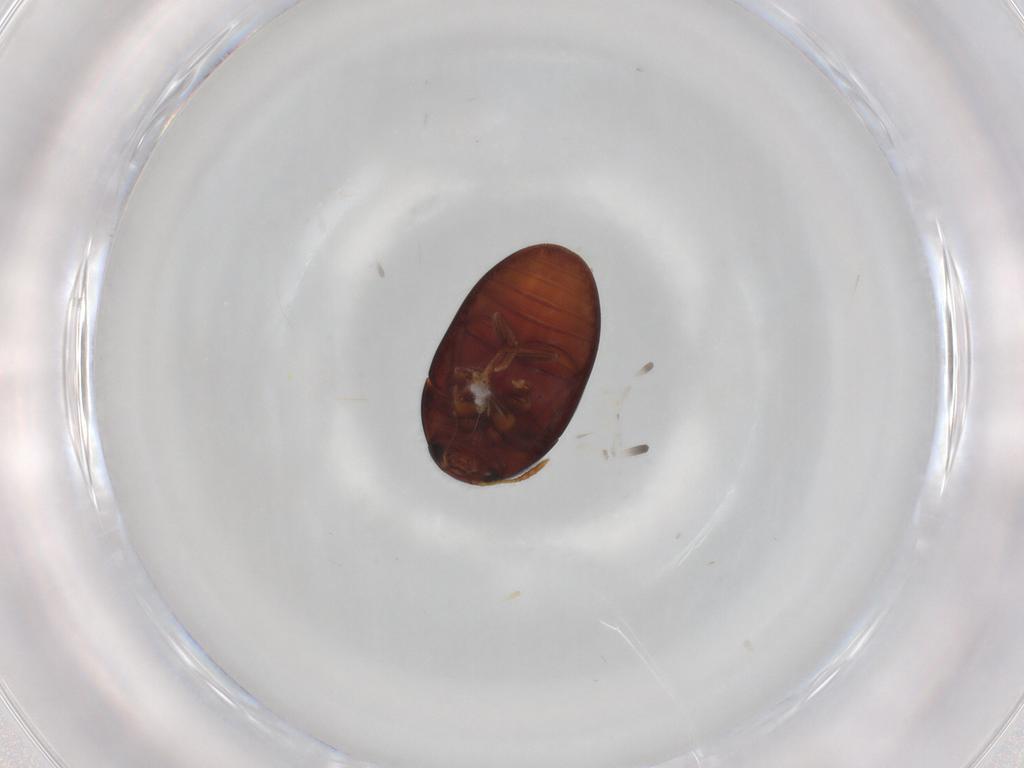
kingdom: Animalia
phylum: Arthropoda
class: Insecta
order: Coleoptera
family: Phalacridae
